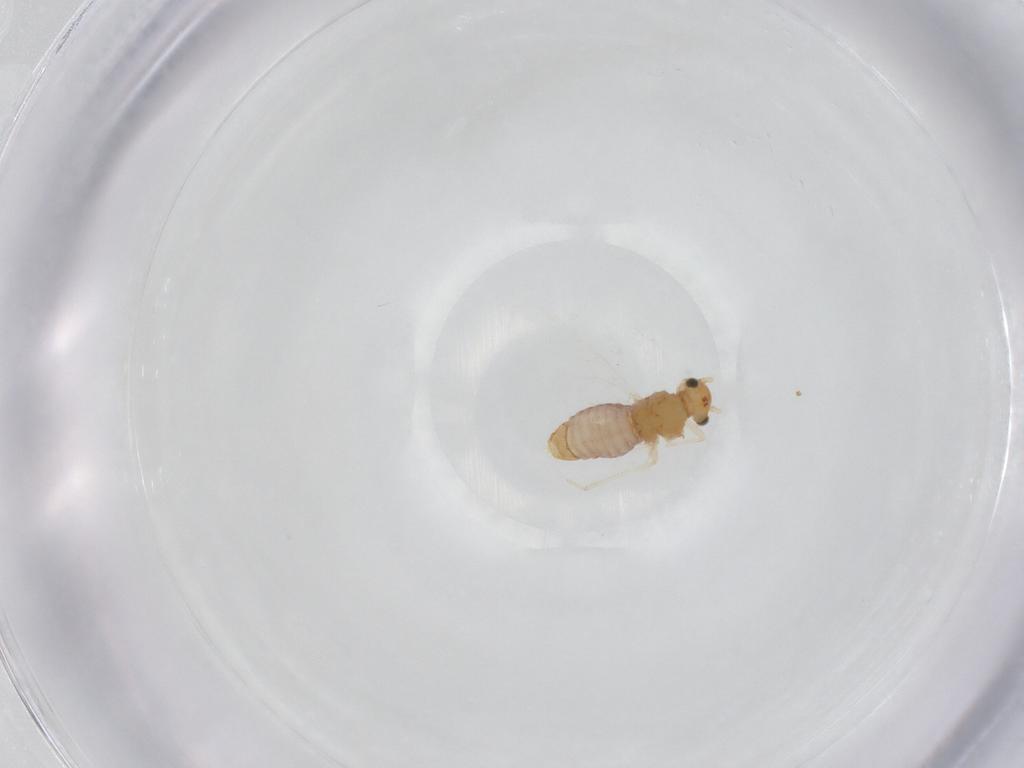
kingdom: Animalia
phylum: Arthropoda
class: Insecta
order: Psocodea
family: Lachesillidae
